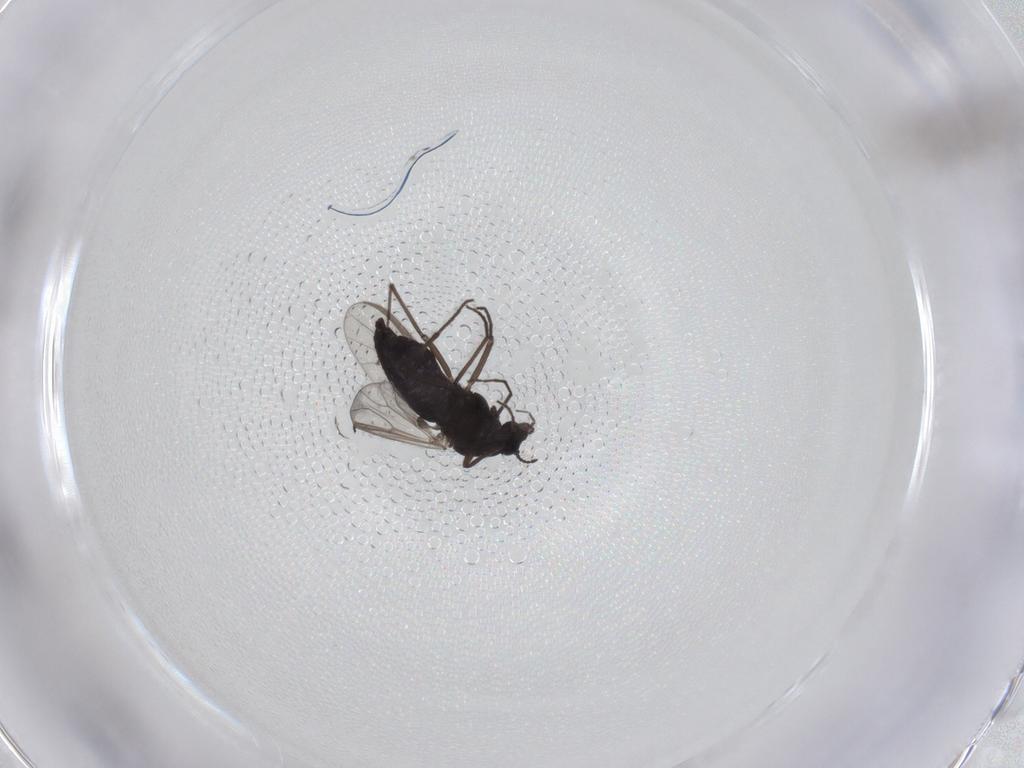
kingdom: Animalia
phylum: Arthropoda
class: Insecta
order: Diptera
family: Chironomidae
